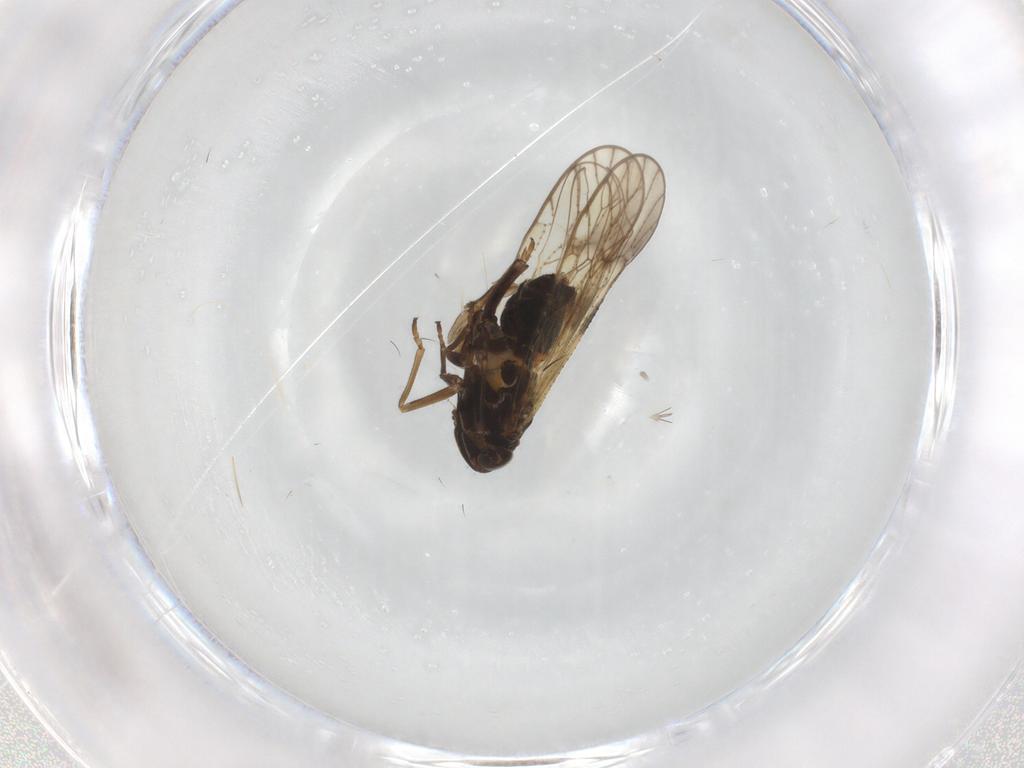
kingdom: Animalia
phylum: Arthropoda
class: Insecta
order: Hemiptera
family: Delphacidae
